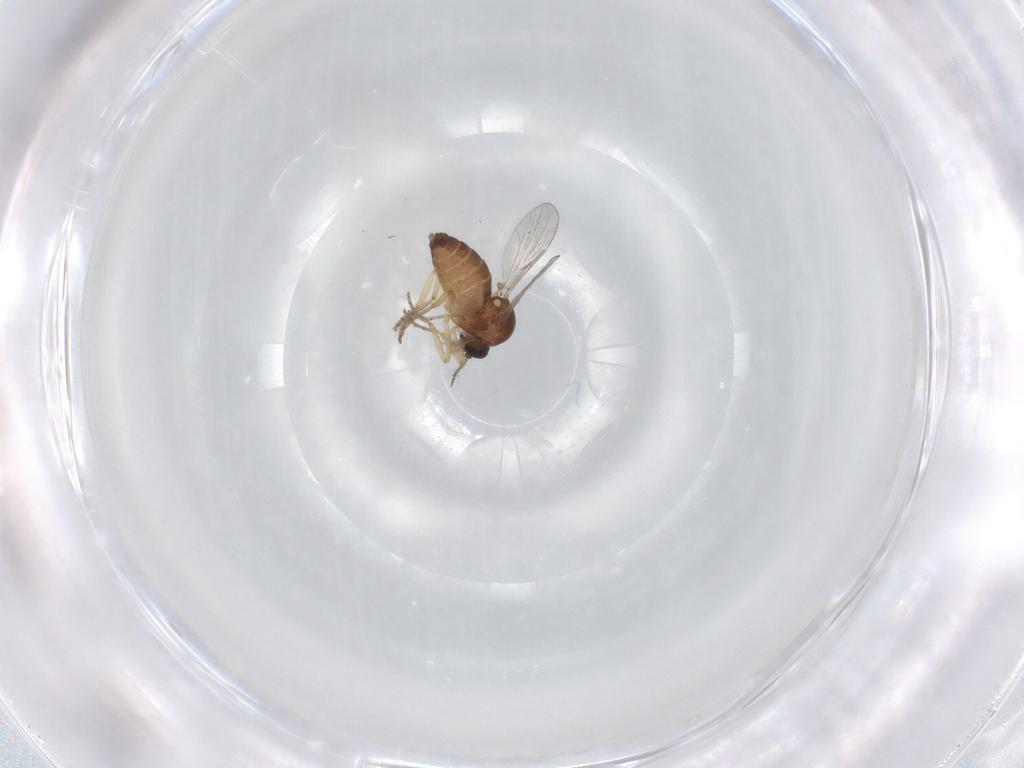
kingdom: Animalia
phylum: Arthropoda
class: Insecta
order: Diptera
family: Ceratopogonidae
